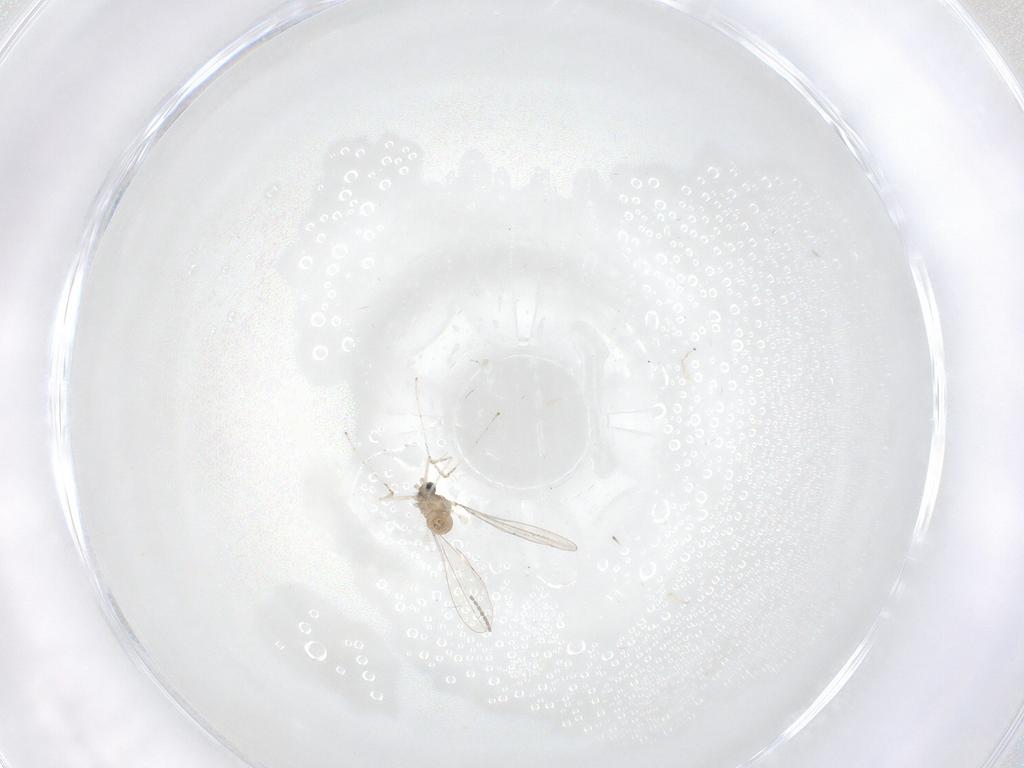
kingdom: Animalia
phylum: Arthropoda
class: Insecta
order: Diptera
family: Cecidomyiidae
